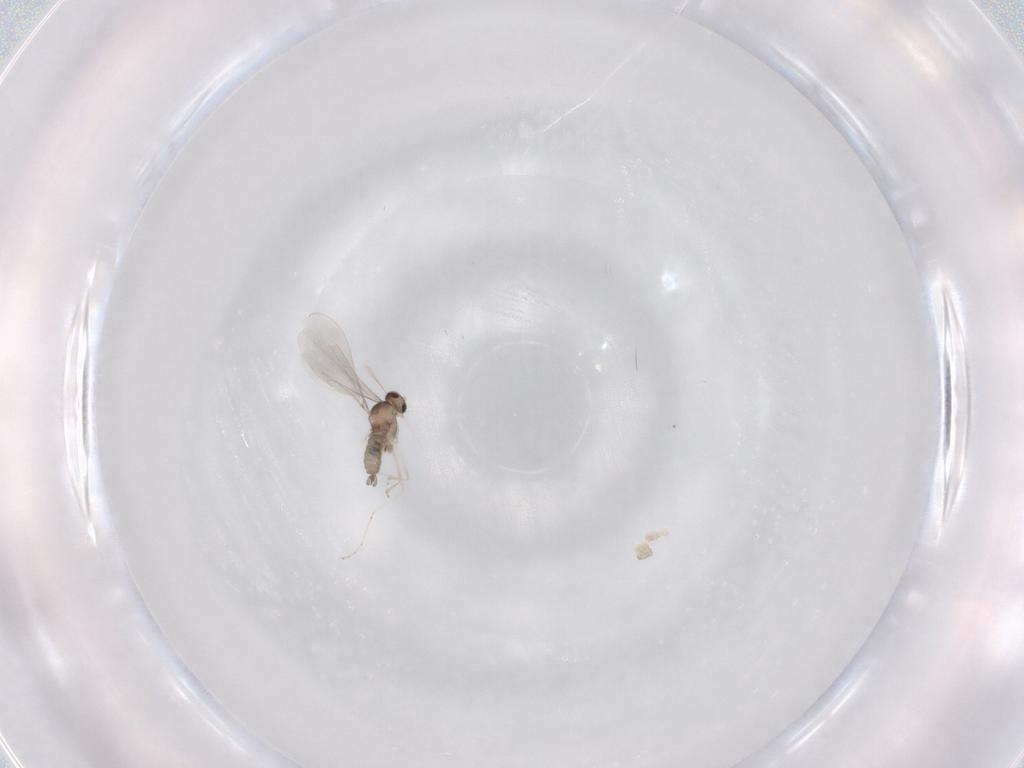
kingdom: Animalia
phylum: Arthropoda
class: Insecta
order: Diptera
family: Cecidomyiidae
